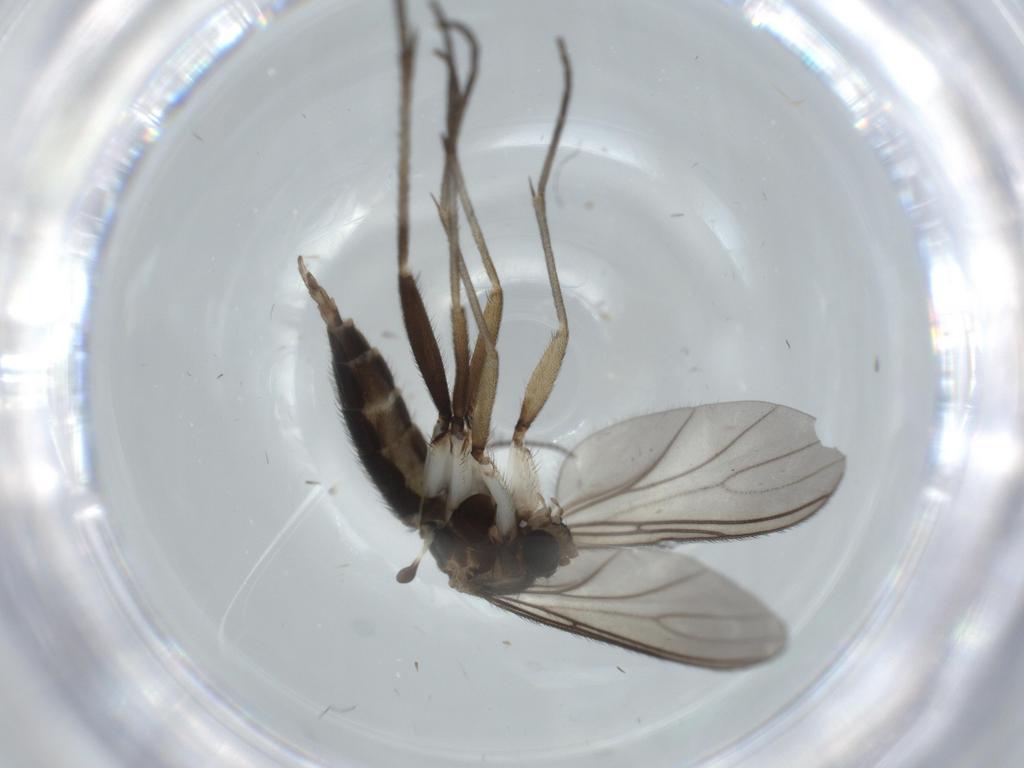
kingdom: Animalia
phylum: Arthropoda
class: Insecta
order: Diptera
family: Sciaridae
